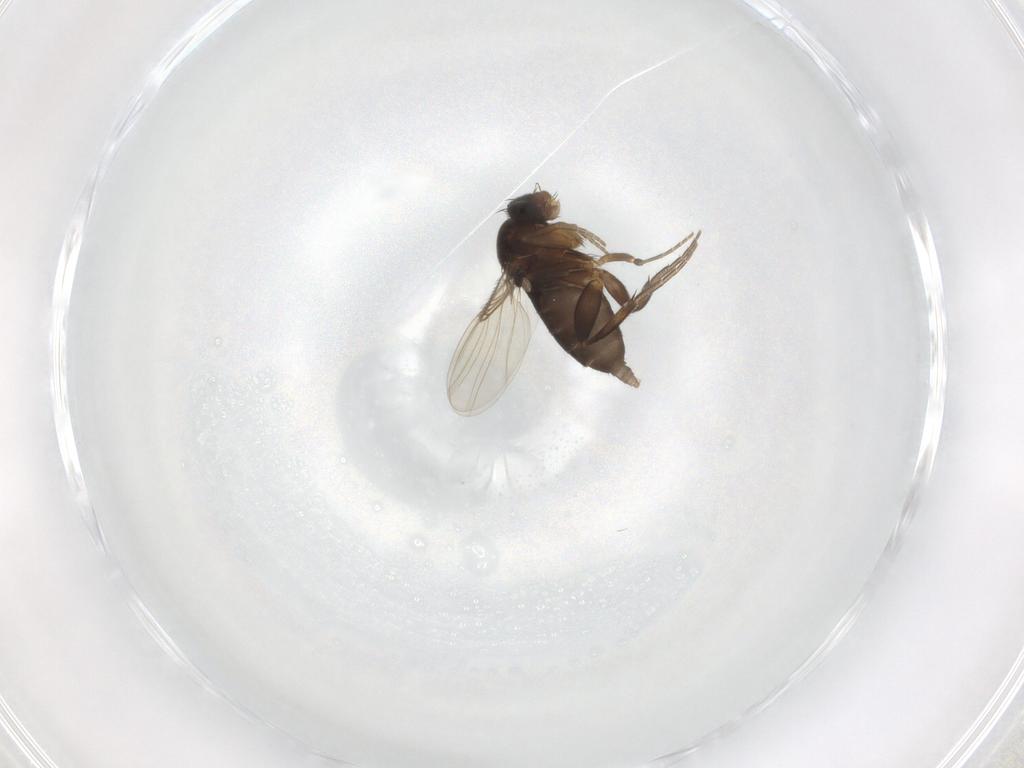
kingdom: Animalia
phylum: Arthropoda
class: Insecta
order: Diptera
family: Phoridae
